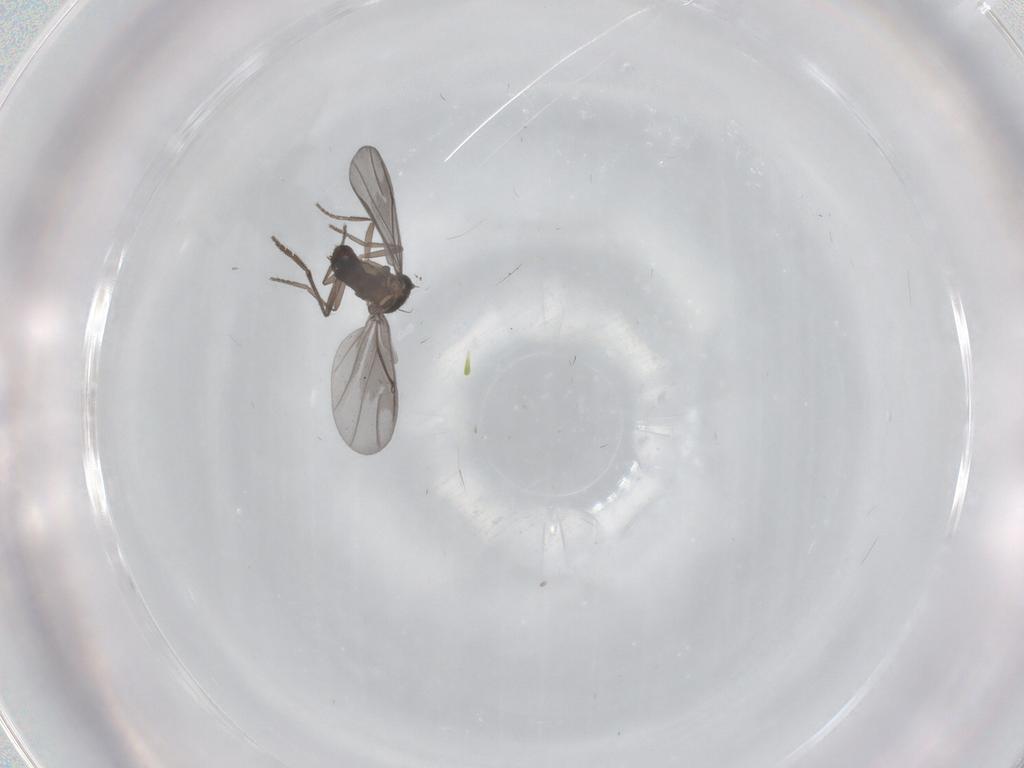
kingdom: Animalia
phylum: Arthropoda
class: Insecta
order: Diptera
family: Phoridae
